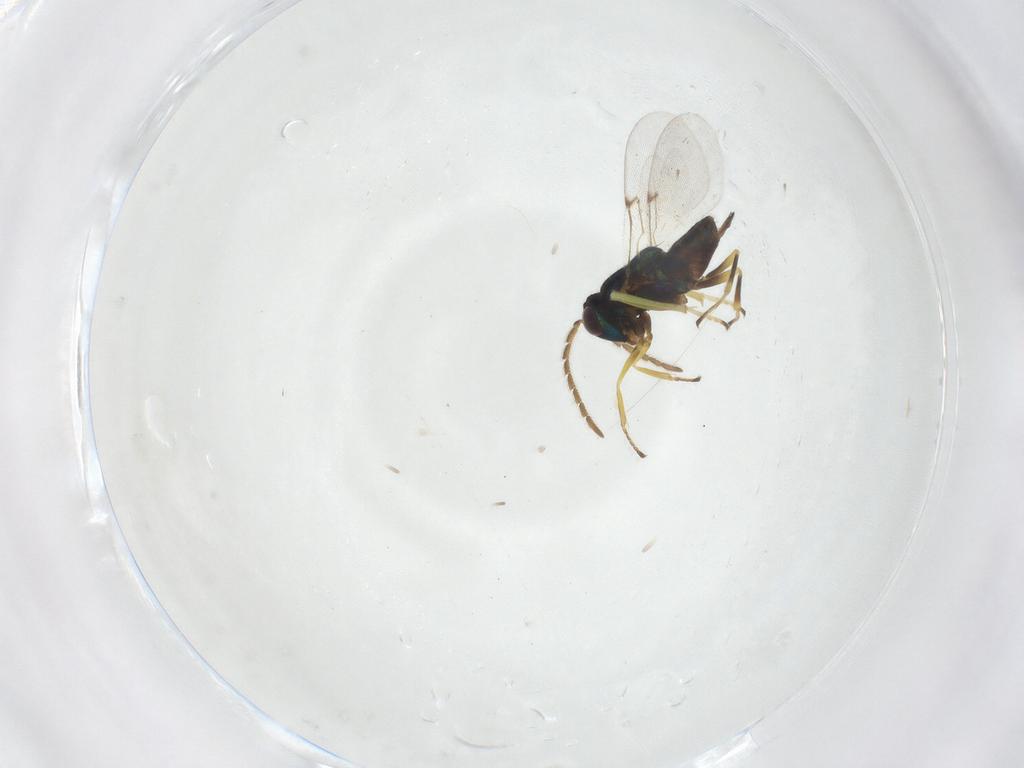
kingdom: Animalia
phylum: Arthropoda
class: Insecta
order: Hymenoptera
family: Encyrtidae
